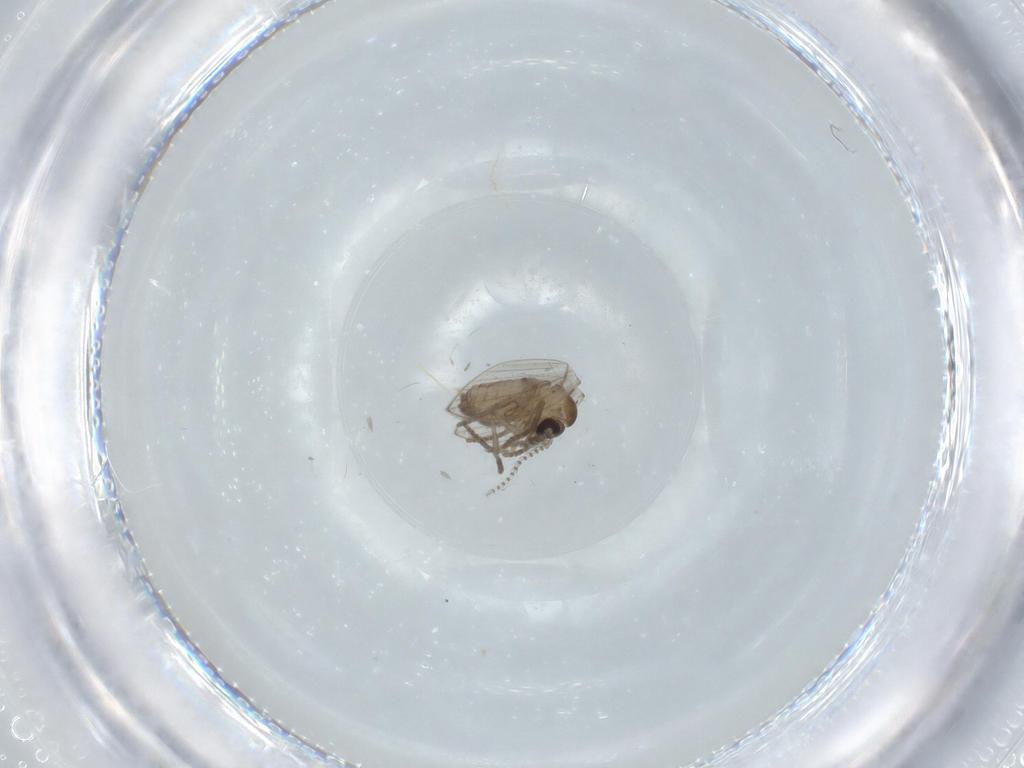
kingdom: Animalia
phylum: Arthropoda
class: Insecta
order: Diptera
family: Psychodidae
